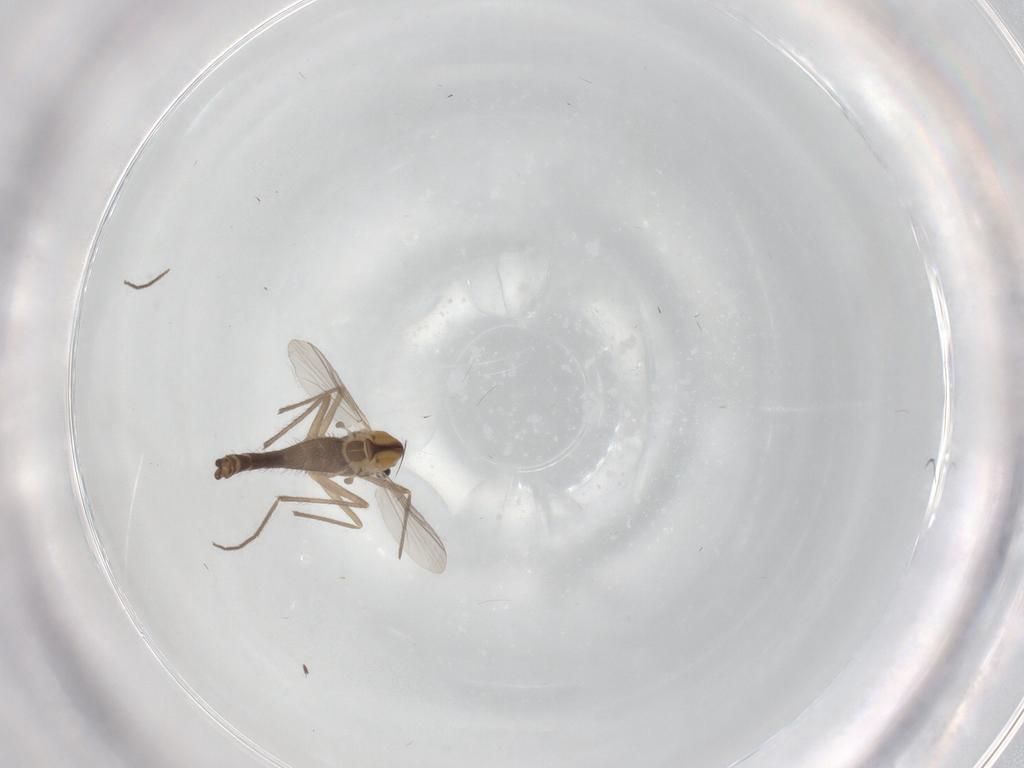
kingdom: Animalia
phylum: Arthropoda
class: Insecta
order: Diptera
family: Chironomidae
